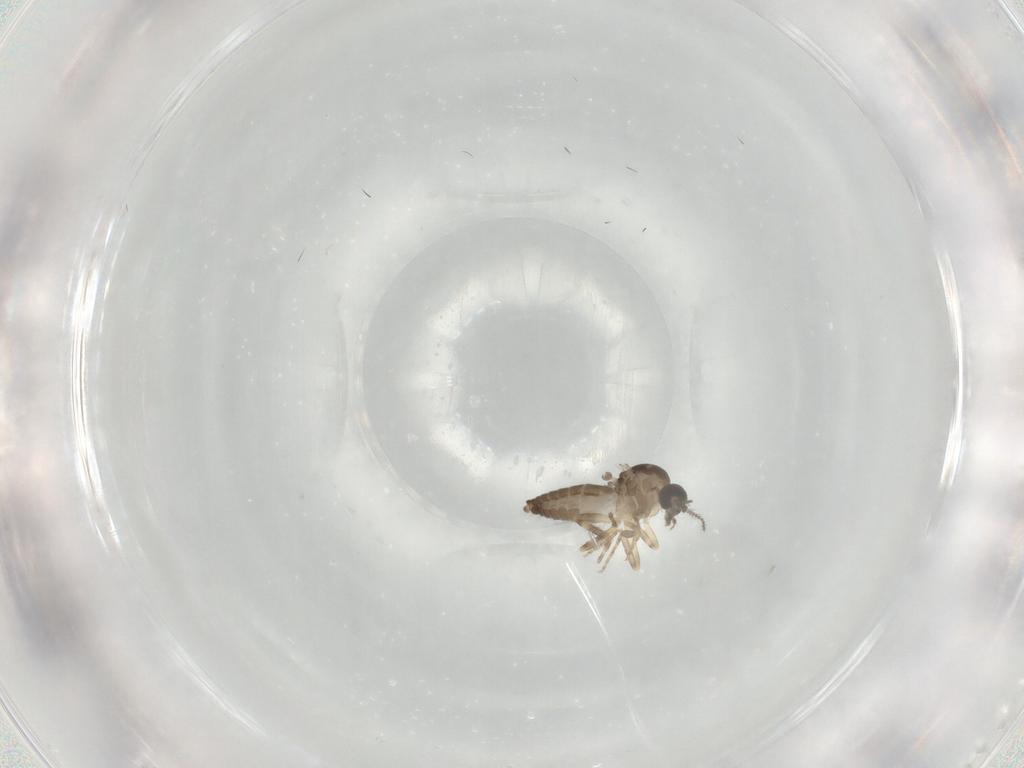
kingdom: Animalia
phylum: Arthropoda
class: Insecta
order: Diptera
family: Ceratopogonidae
